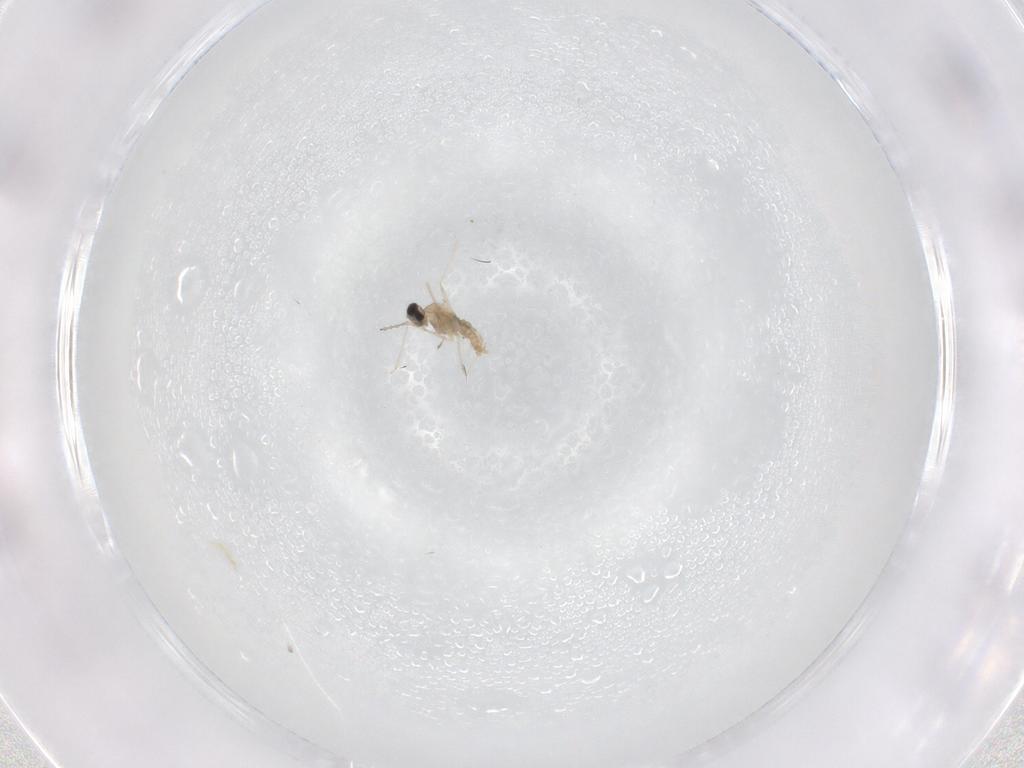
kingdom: Animalia
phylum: Arthropoda
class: Insecta
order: Diptera
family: Cecidomyiidae
